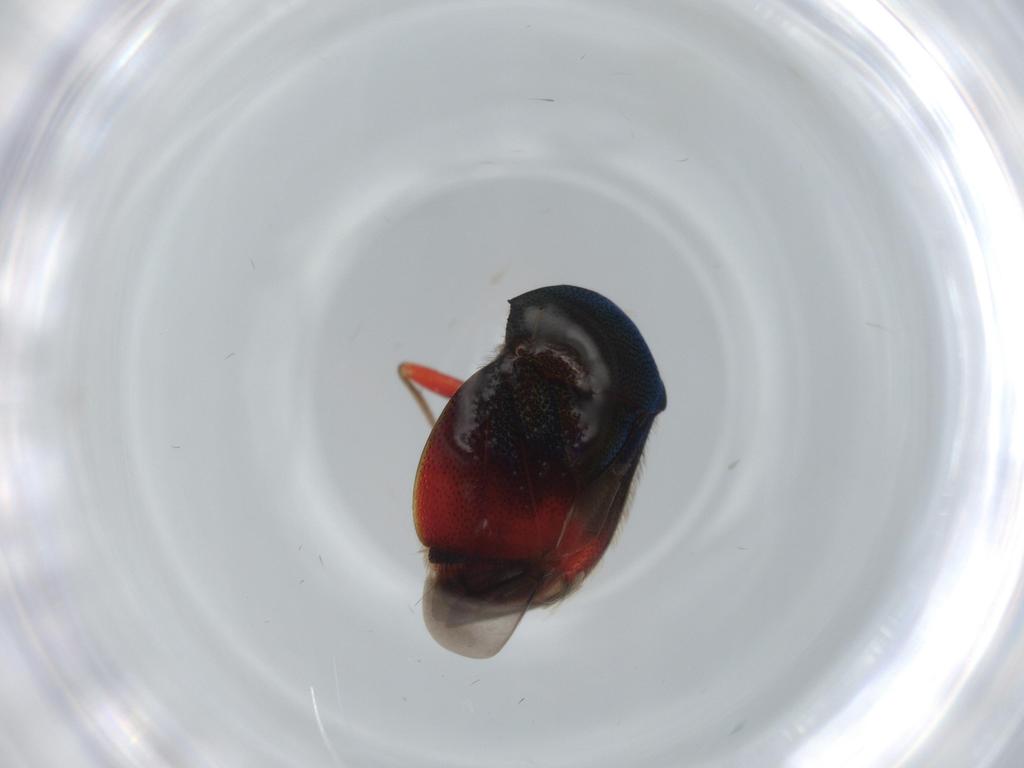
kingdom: Animalia
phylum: Arthropoda
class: Insecta
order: Hemiptera
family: Miridae
